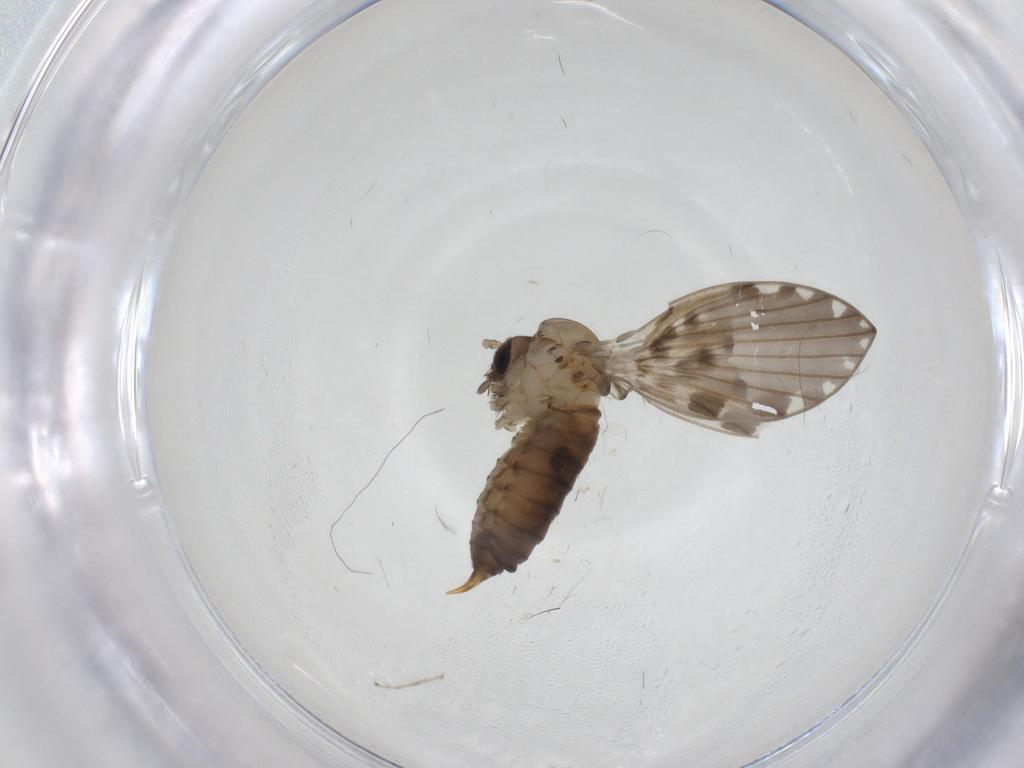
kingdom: Animalia
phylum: Arthropoda
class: Insecta
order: Diptera
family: Psychodidae
